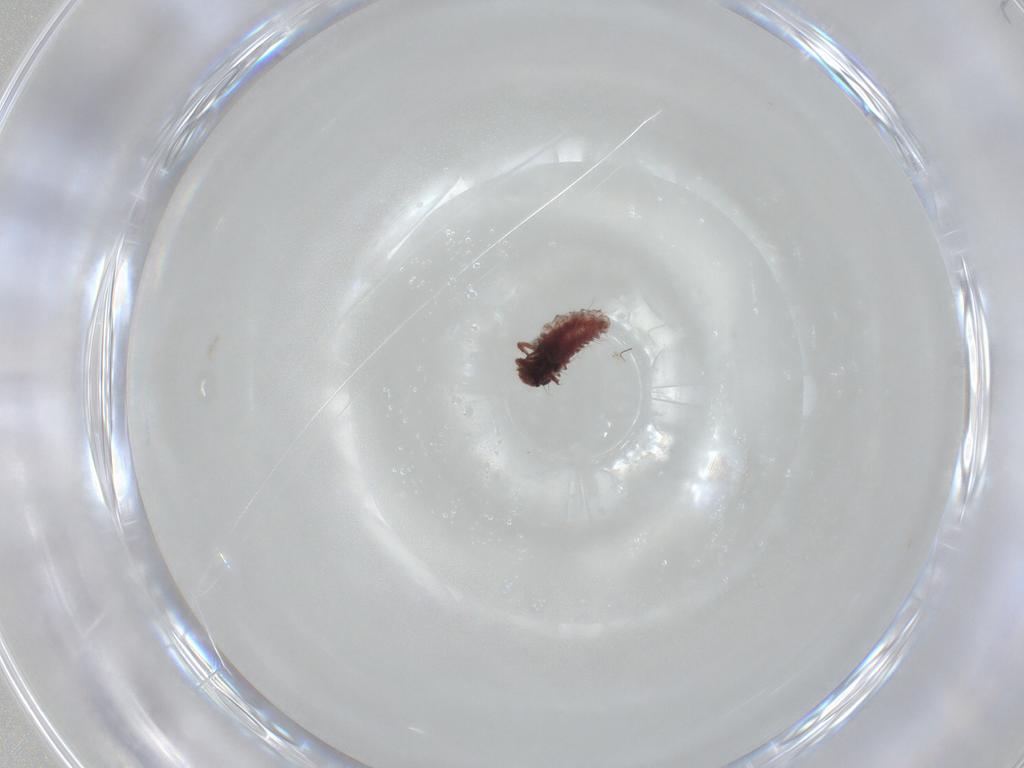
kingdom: Animalia
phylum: Arthropoda
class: Insecta
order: Coleoptera
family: Coccinellidae
